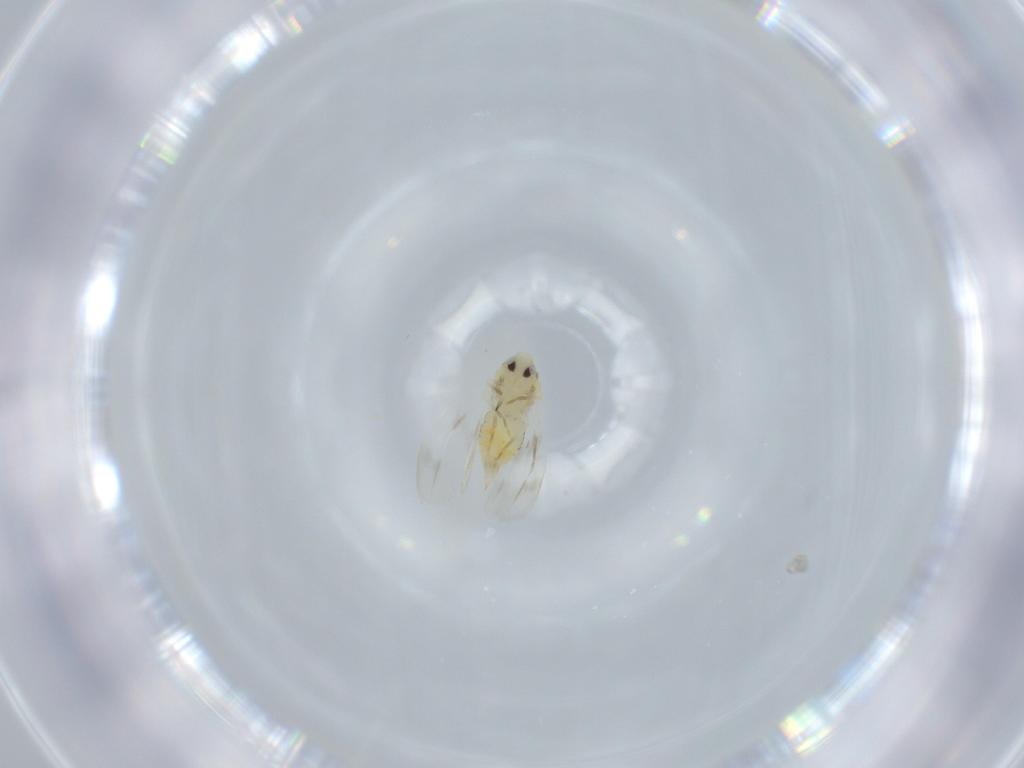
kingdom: Animalia
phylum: Arthropoda
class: Insecta
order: Hemiptera
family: Aleyrodidae
